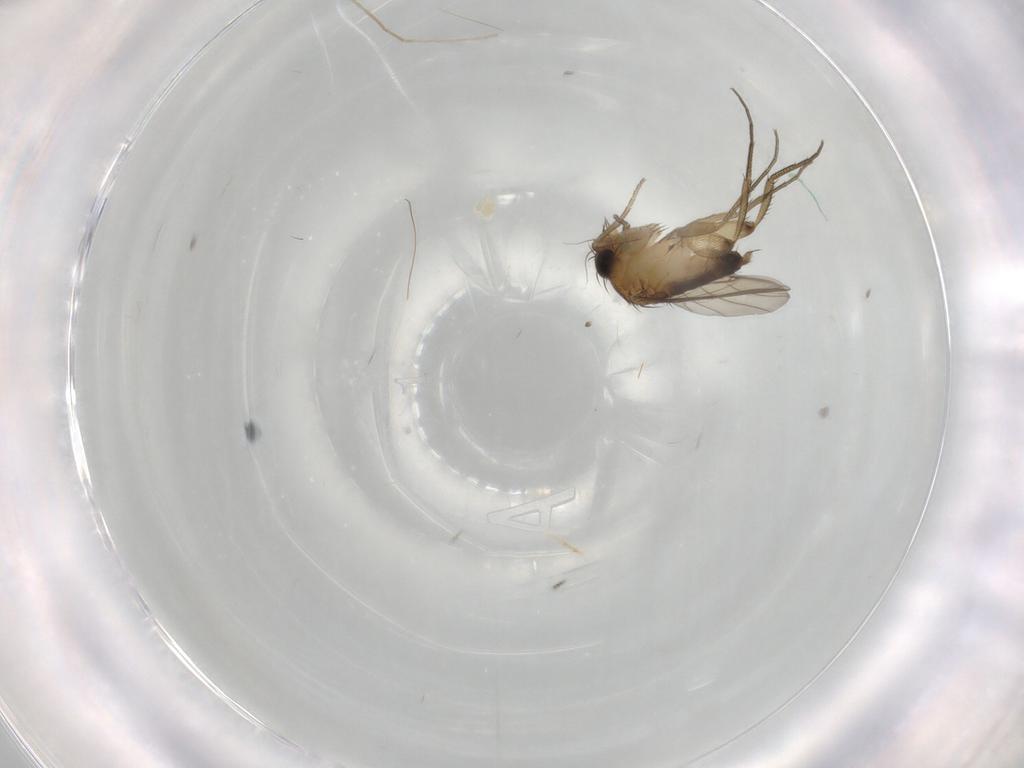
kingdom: Animalia
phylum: Arthropoda
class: Insecta
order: Diptera
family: Phoridae
